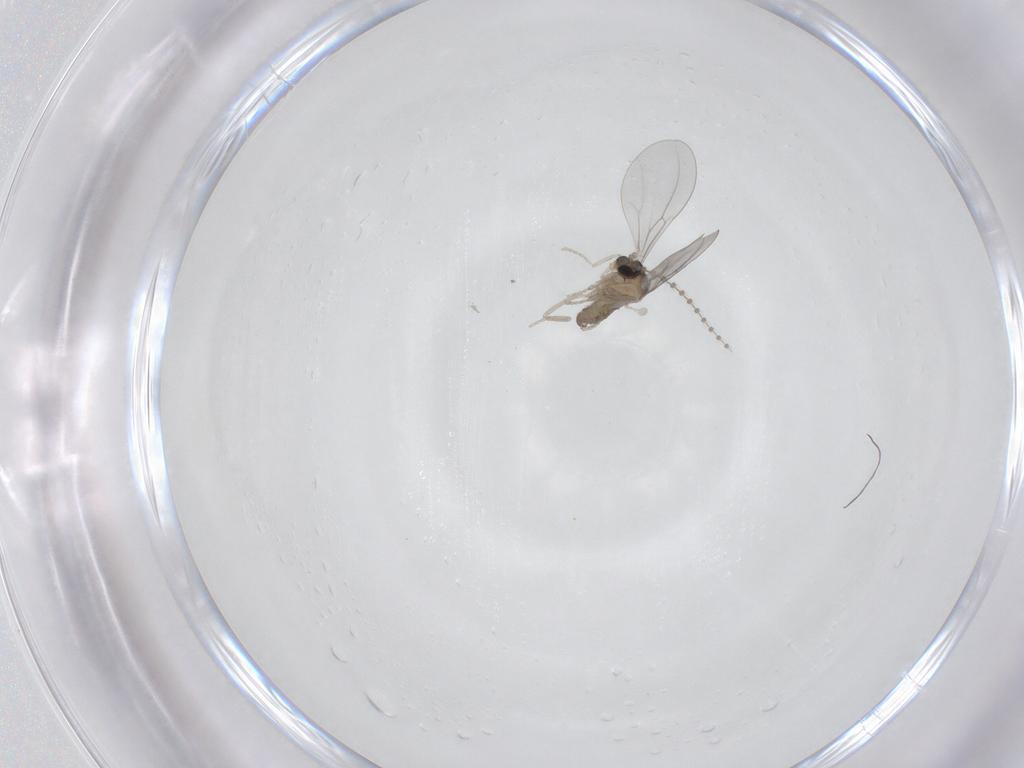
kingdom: Animalia
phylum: Arthropoda
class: Insecta
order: Diptera
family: Cecidomyiidae
